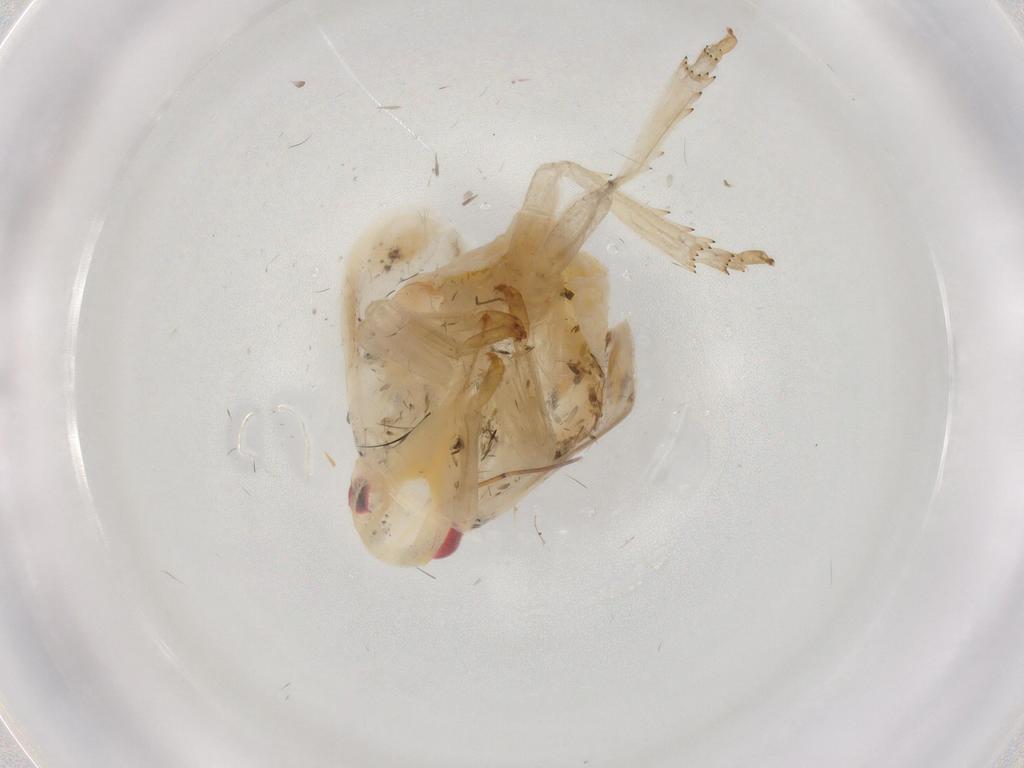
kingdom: Animalia
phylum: Arthropoda
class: Insecta
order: Hemiptera
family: Flatidae
